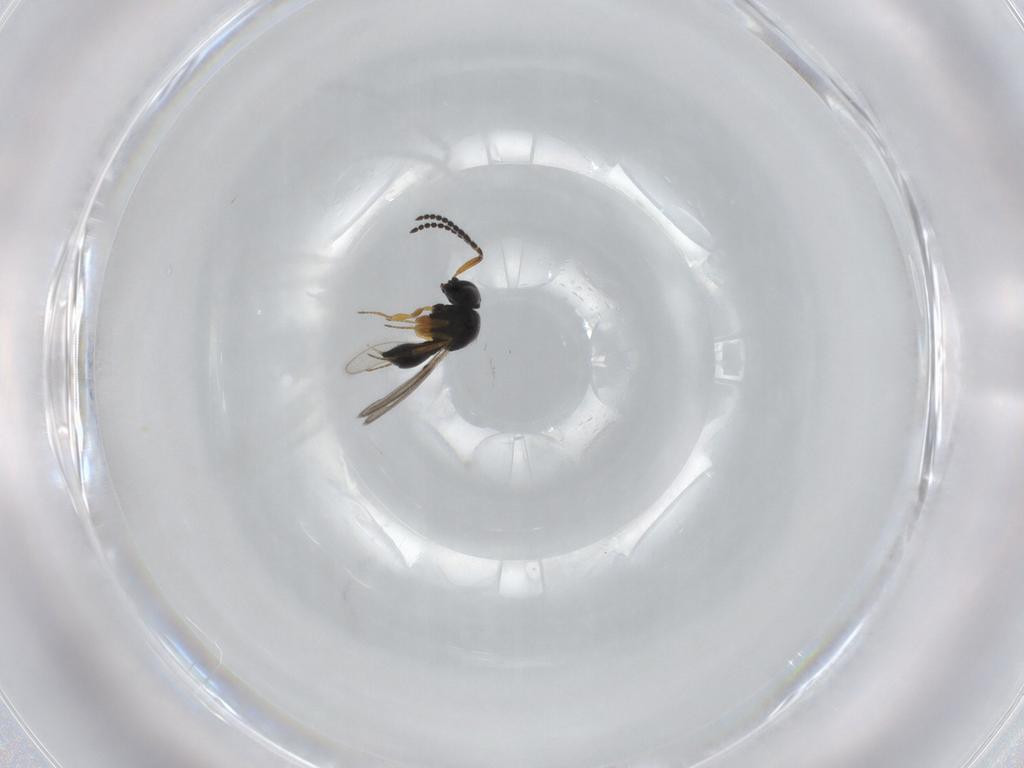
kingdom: Animalia
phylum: Arthropoda
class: Insecta
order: Hymenoptera
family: Scelionidae
